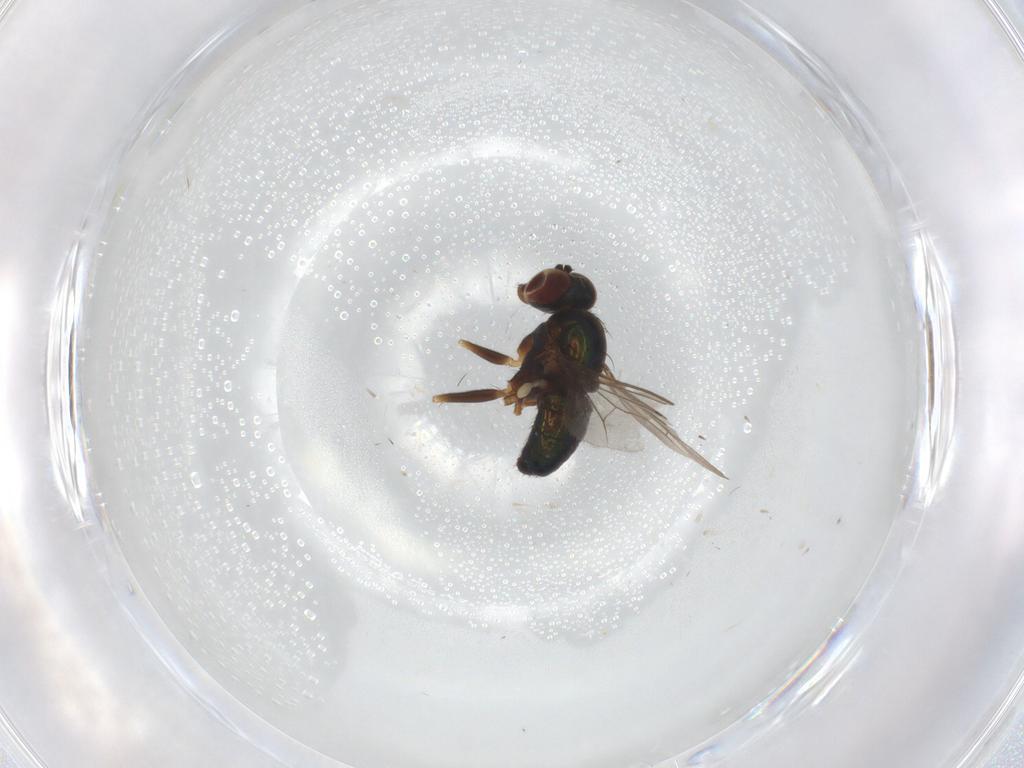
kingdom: Animalia
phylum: Arthropoda
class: Insecta
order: Diptera
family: Dolichopodidae
